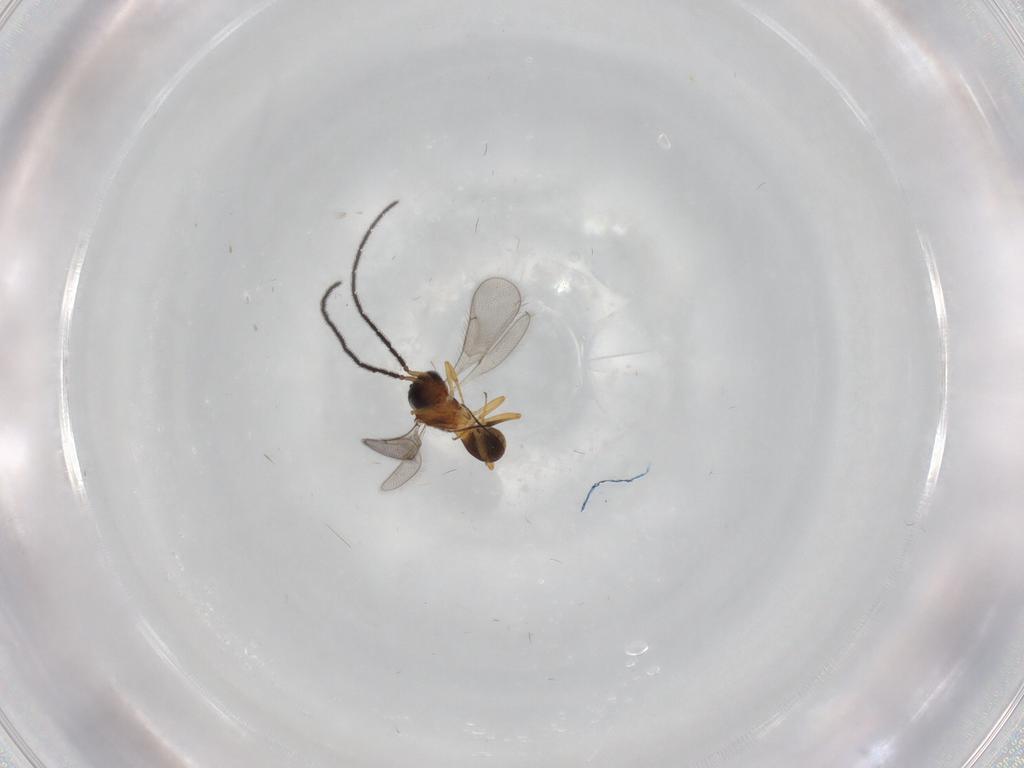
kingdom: Animalia
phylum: Arthropoda
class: Insecta
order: Hymenoptera
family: Scelionidae
